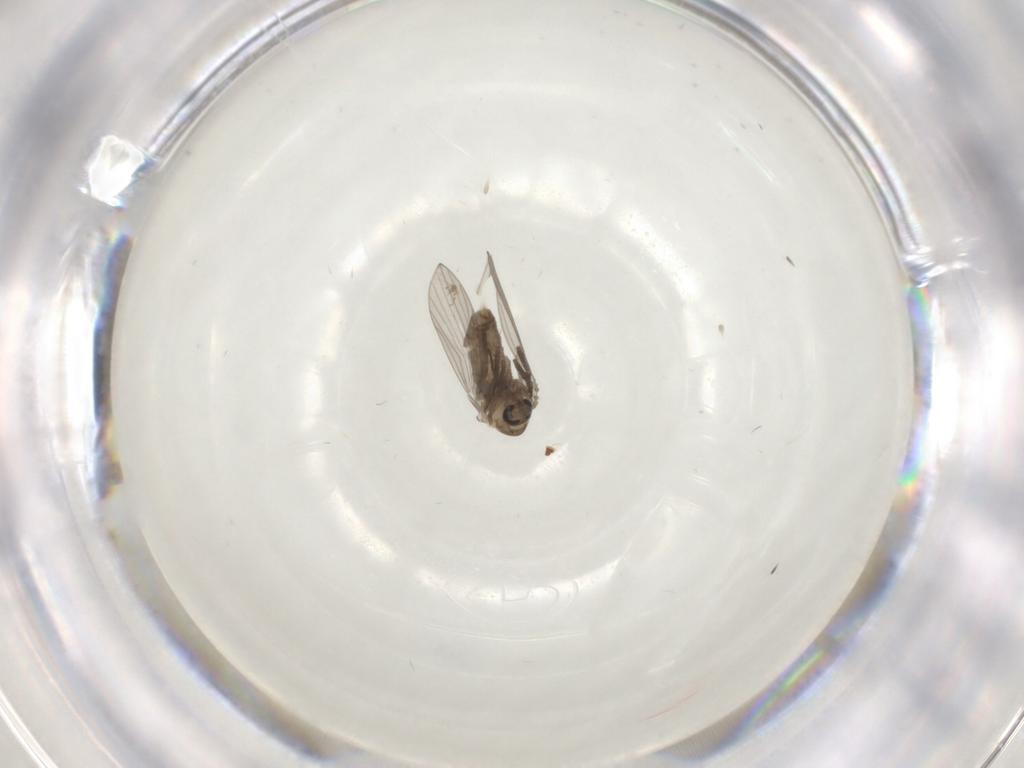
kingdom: Animalia
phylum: Arthropoda
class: Insecta
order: Diptera
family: Psychodidae
